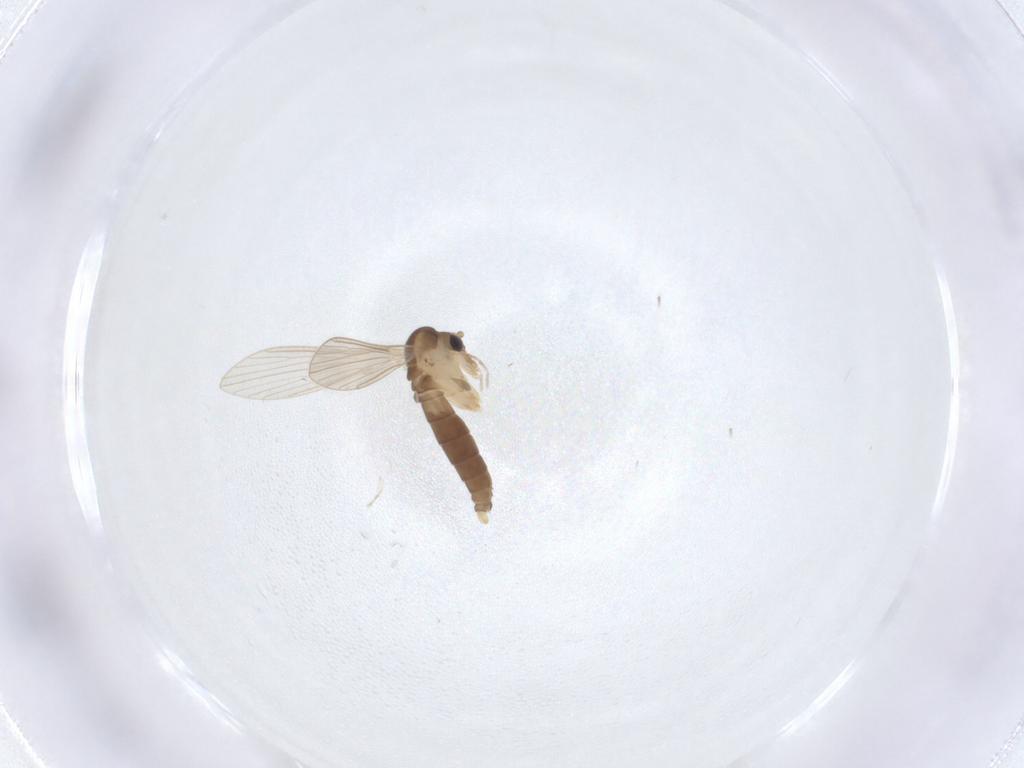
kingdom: Animalia
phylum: Arthropoda
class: Insecta
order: Diptera
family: Psychodidae
